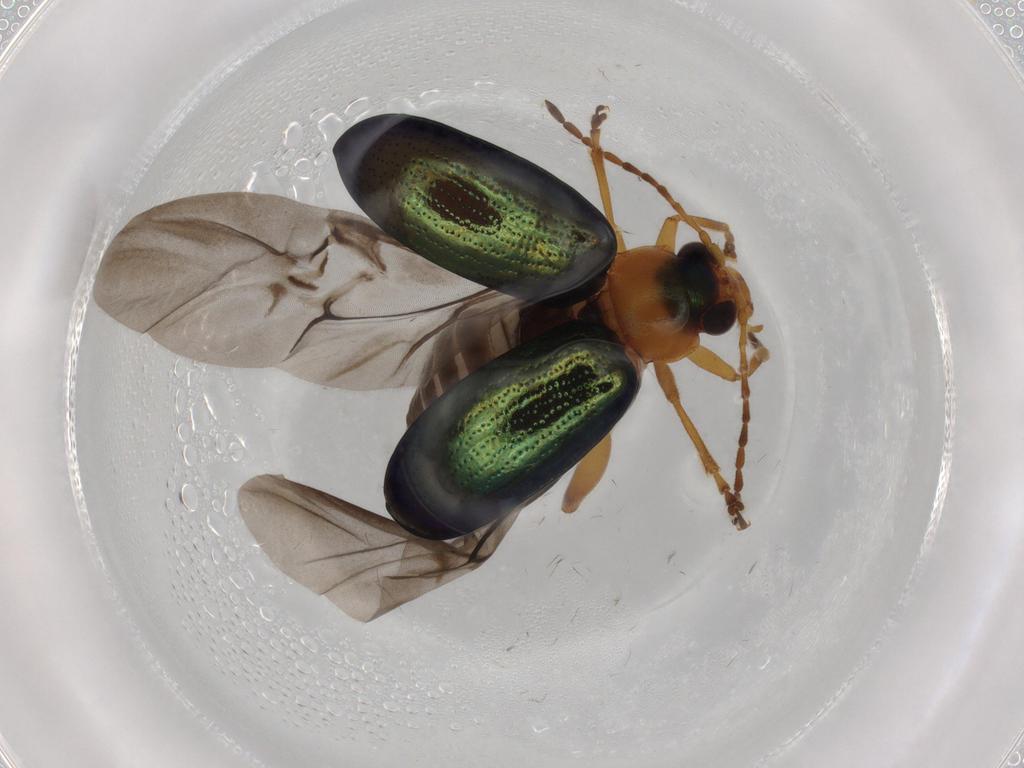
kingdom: Animalia
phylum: Arthropoda
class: Insecta
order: Coleoptera
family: Chrysomelidae
